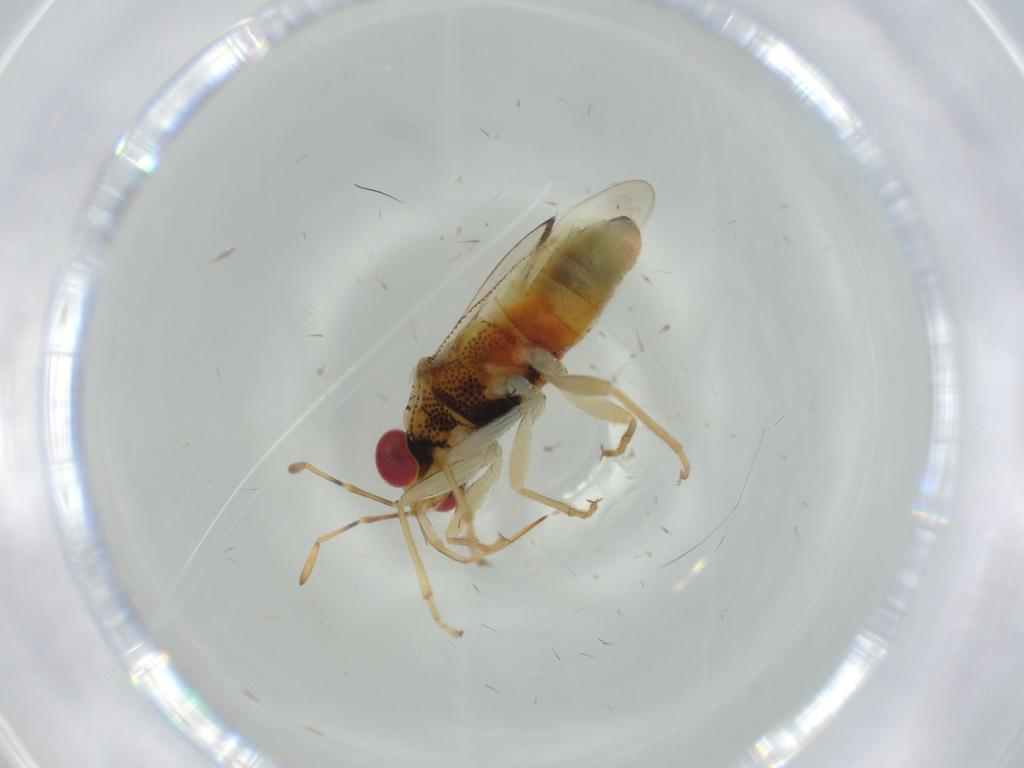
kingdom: Animalia
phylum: Arthropoda
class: Insecta
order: Hemiptera
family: Geocoridae
